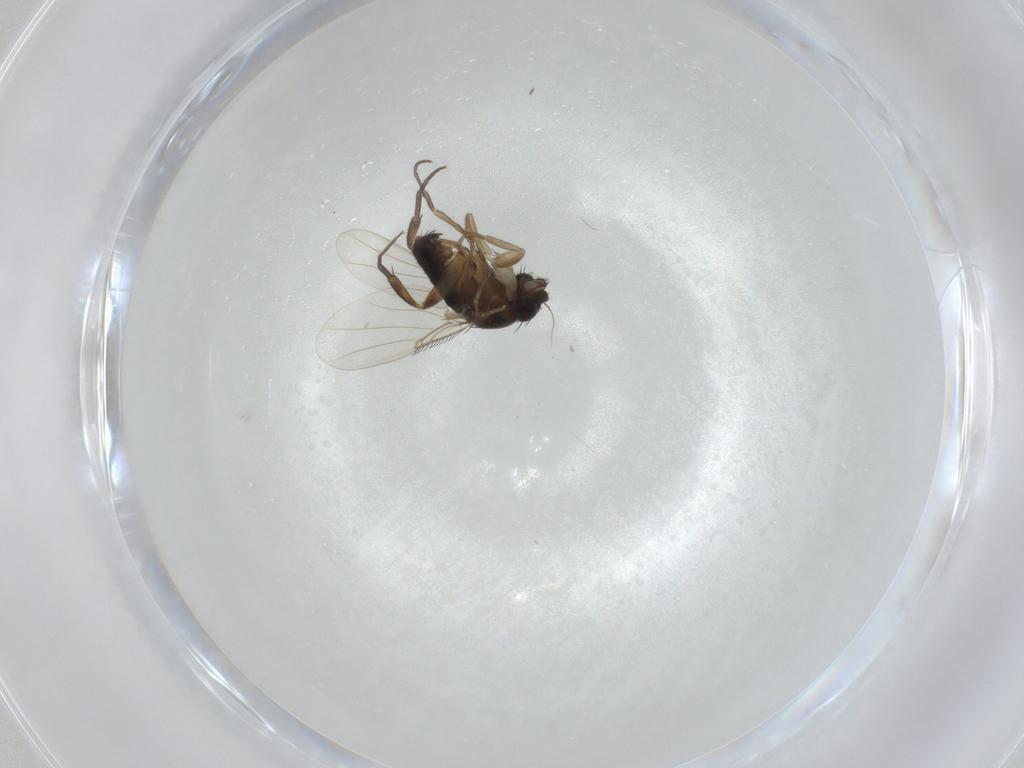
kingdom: Animalia
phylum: Arthropoda
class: Insecta
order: Diptera
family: Phoridae
